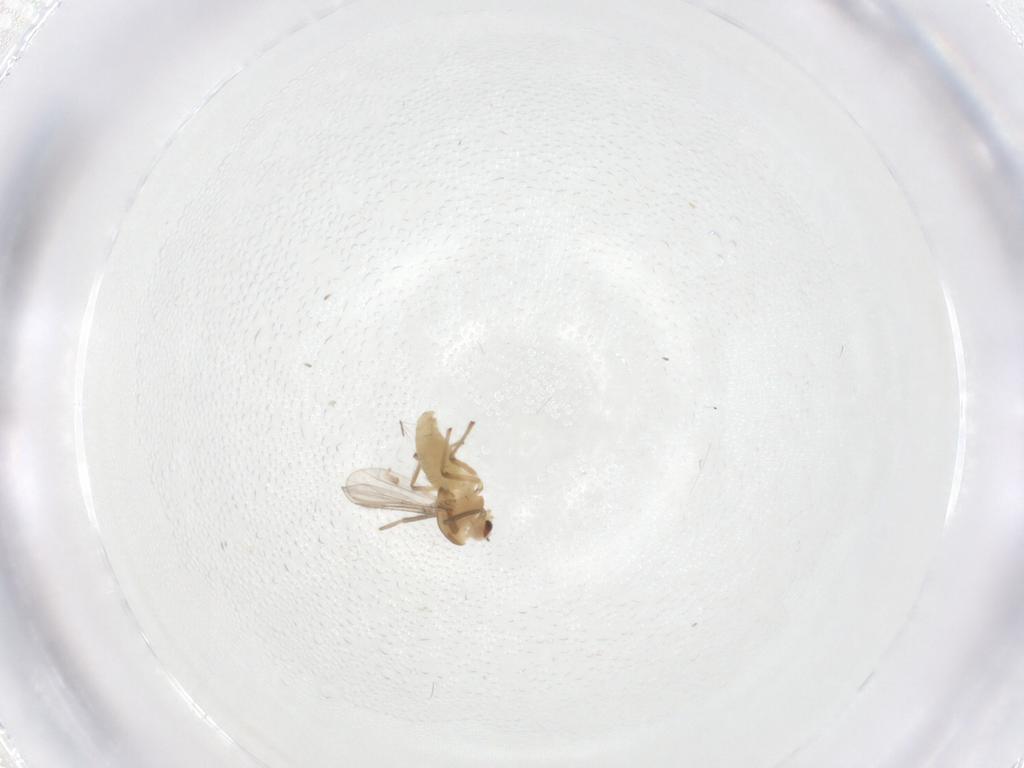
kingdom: Animalia
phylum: Arthropoda
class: Insecta
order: Diptera
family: Chironomidae
